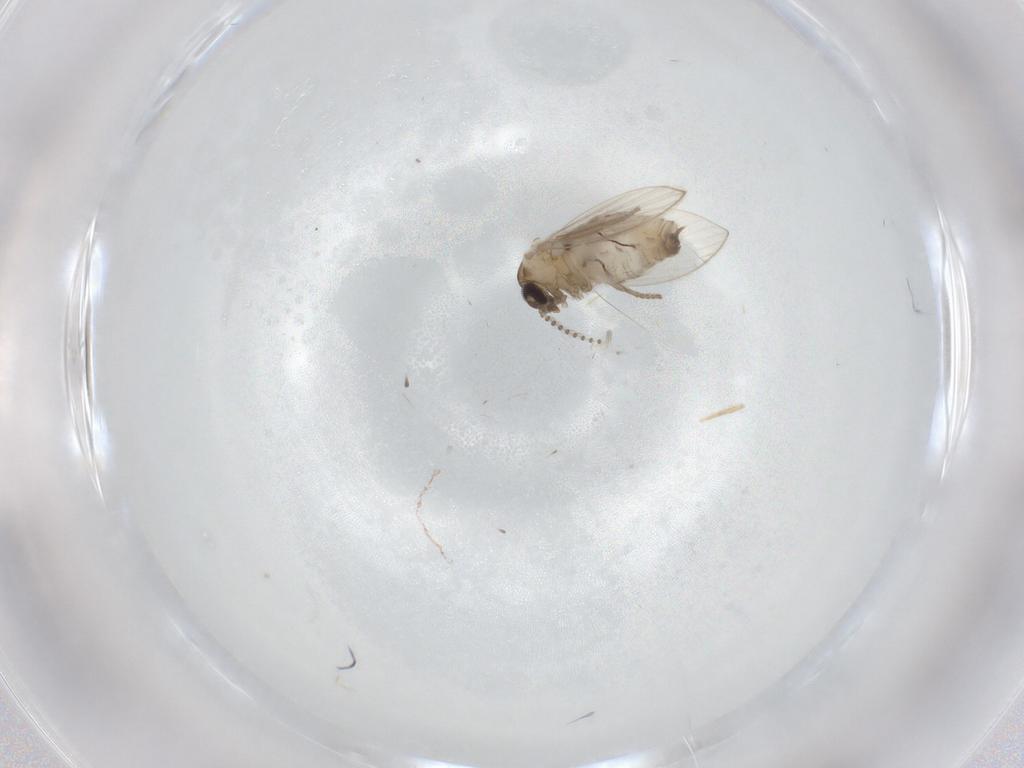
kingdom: Animalia
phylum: Arthropoda
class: Insecta
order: Diptera
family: Psychodidae
